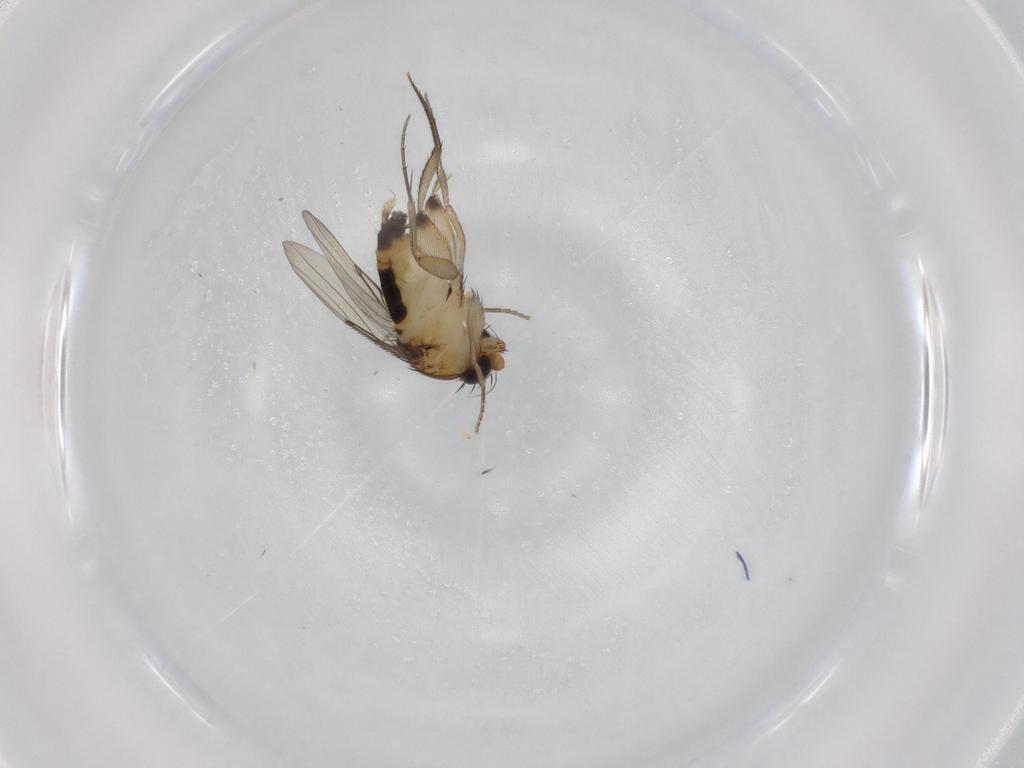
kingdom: Animalia
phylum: Arthropoda
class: Insecta
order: Diptera
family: Phoridae
